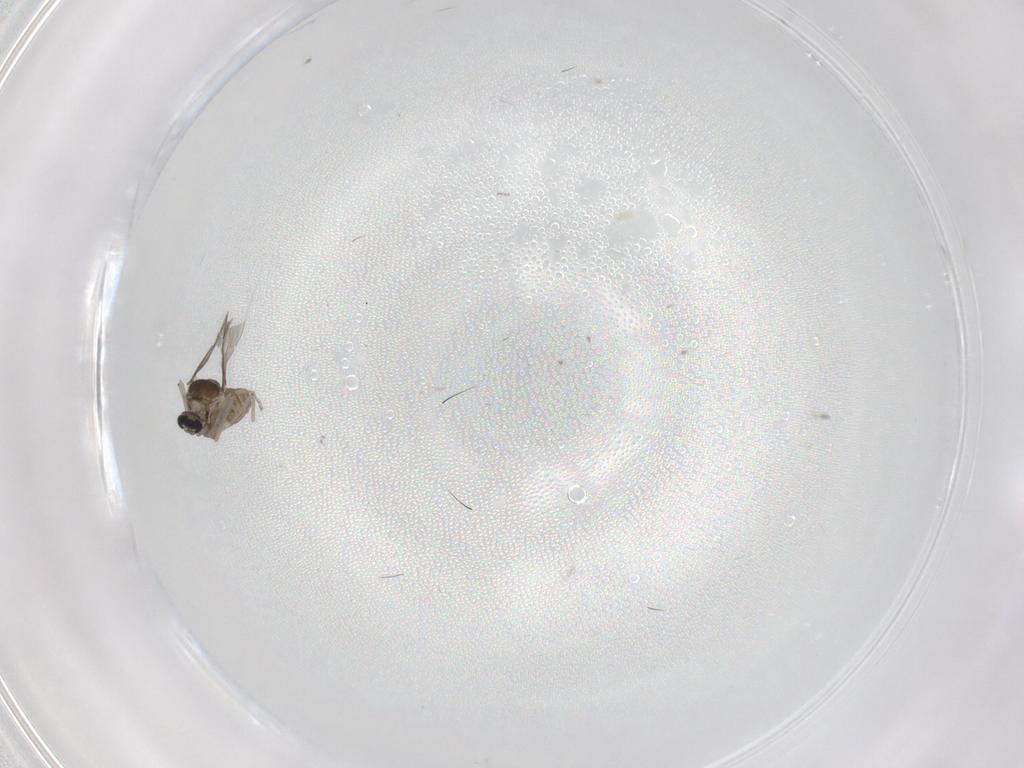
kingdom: Animalia
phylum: Arthropoda
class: Insecta
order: Diptera
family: Cecidomyiidae
